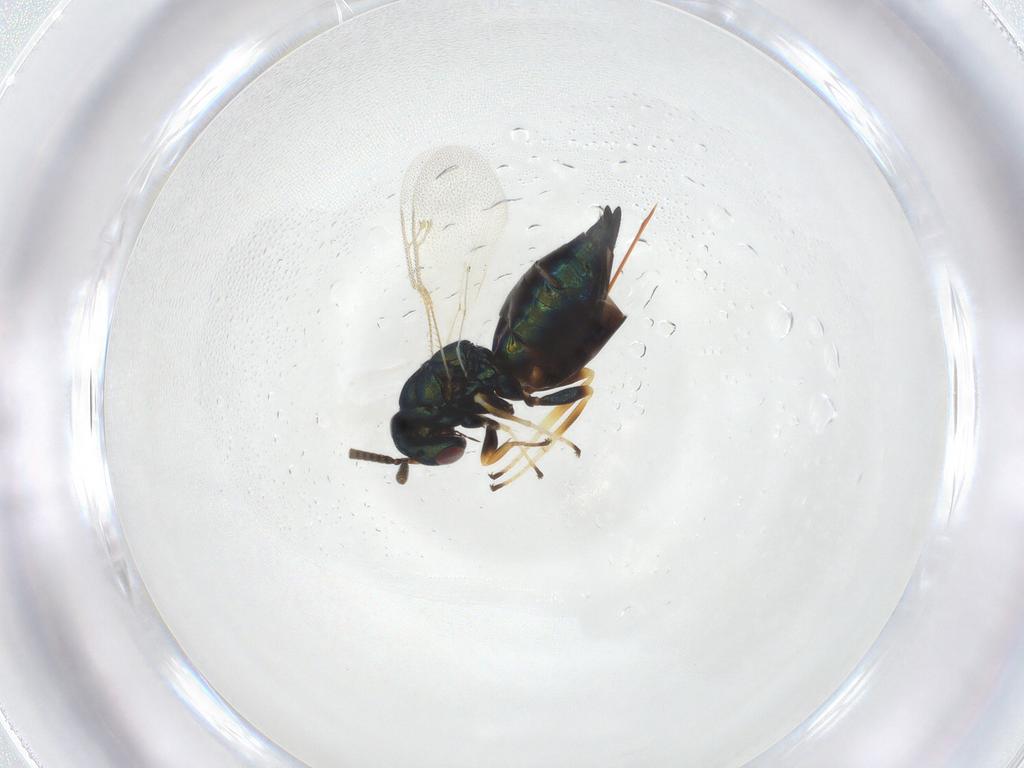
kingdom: Animalia
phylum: Arthropoda
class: Insecta
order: Hymenoptera
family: Pteromalidae
